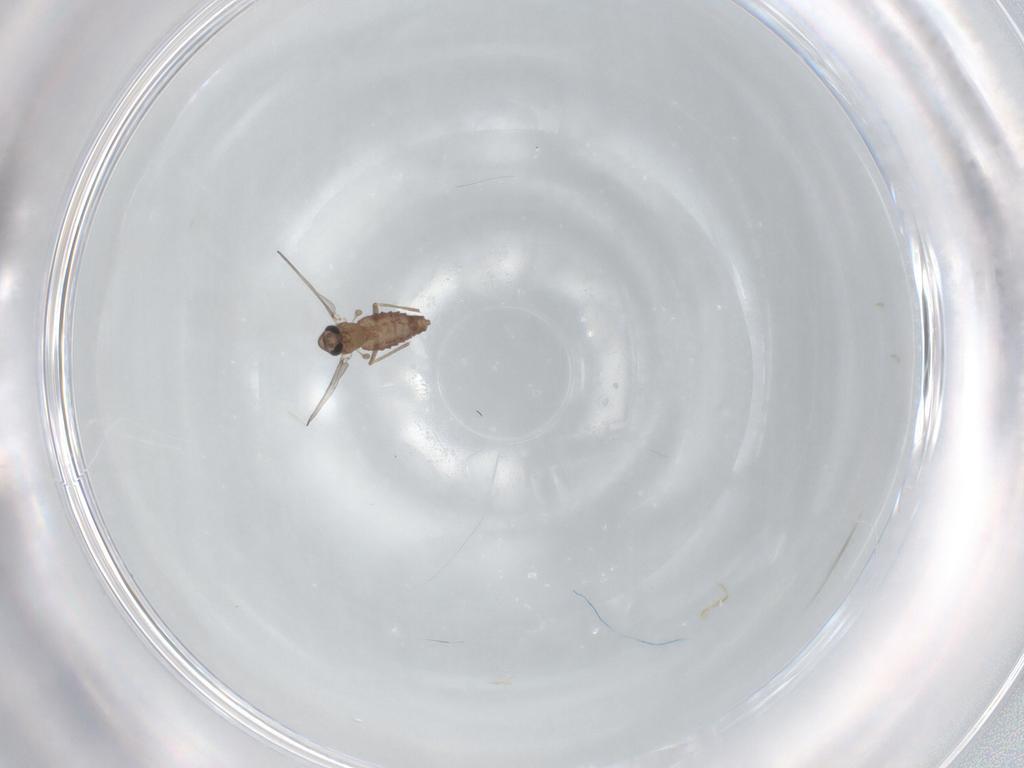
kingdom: Animalia
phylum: Arthropoda
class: Insecta
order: Diptera
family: Chironomidae
